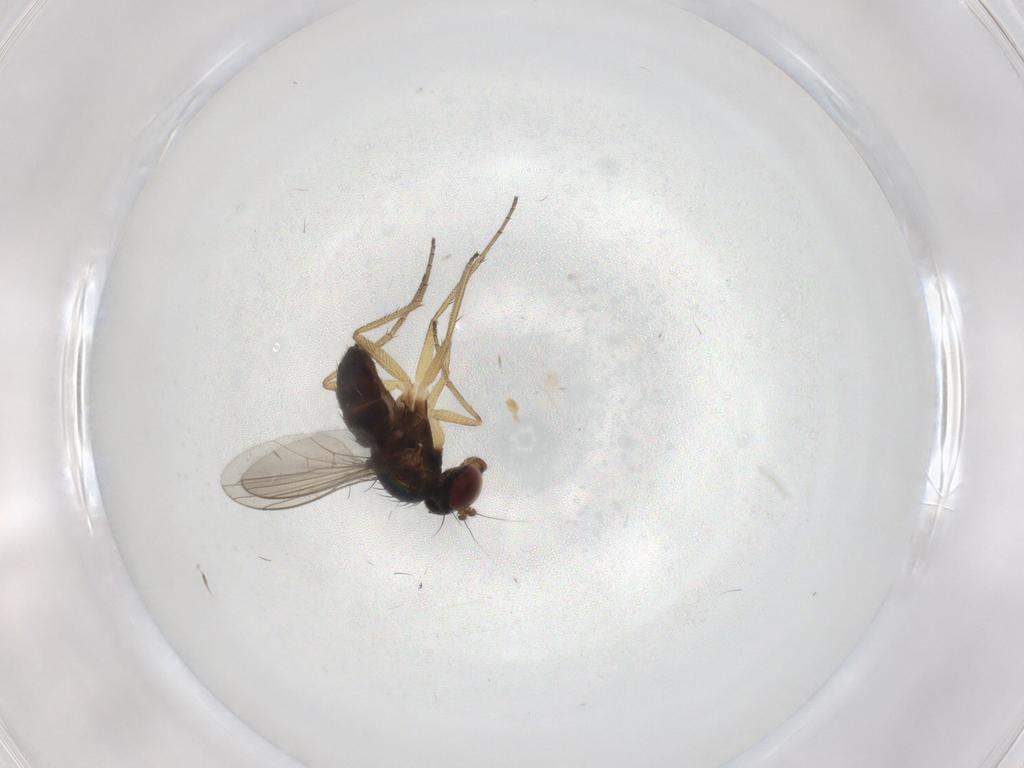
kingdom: Animalia
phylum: Arthropoda
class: Insecta
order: Diptera
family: Dolichopodidae
